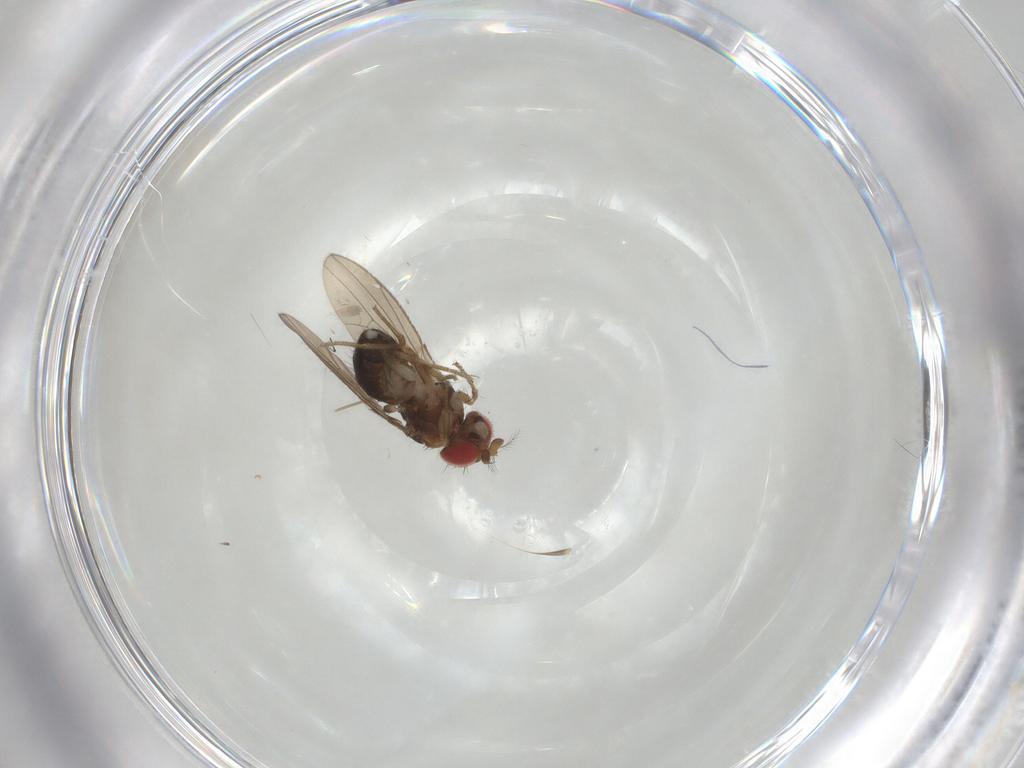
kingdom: Animalia
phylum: Arthropoda
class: Insecta
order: Diptera
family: Drosophilidae
